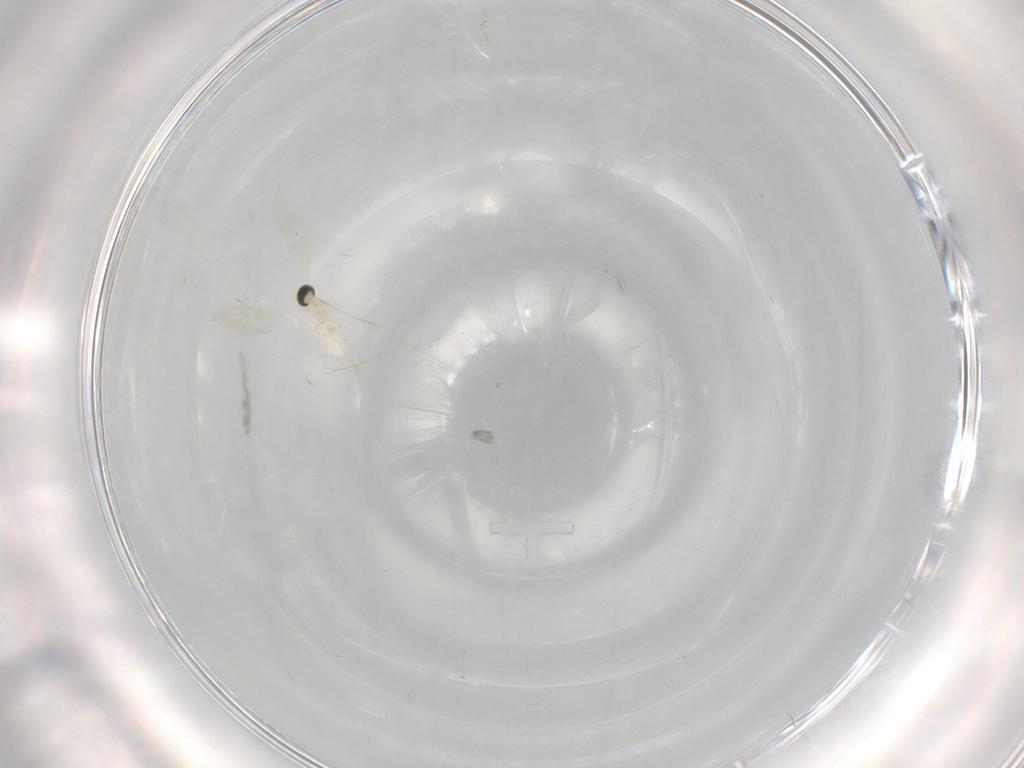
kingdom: Animalia
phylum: Arthropoda
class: Insecta
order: Diptera
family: Cecidomyiidae
